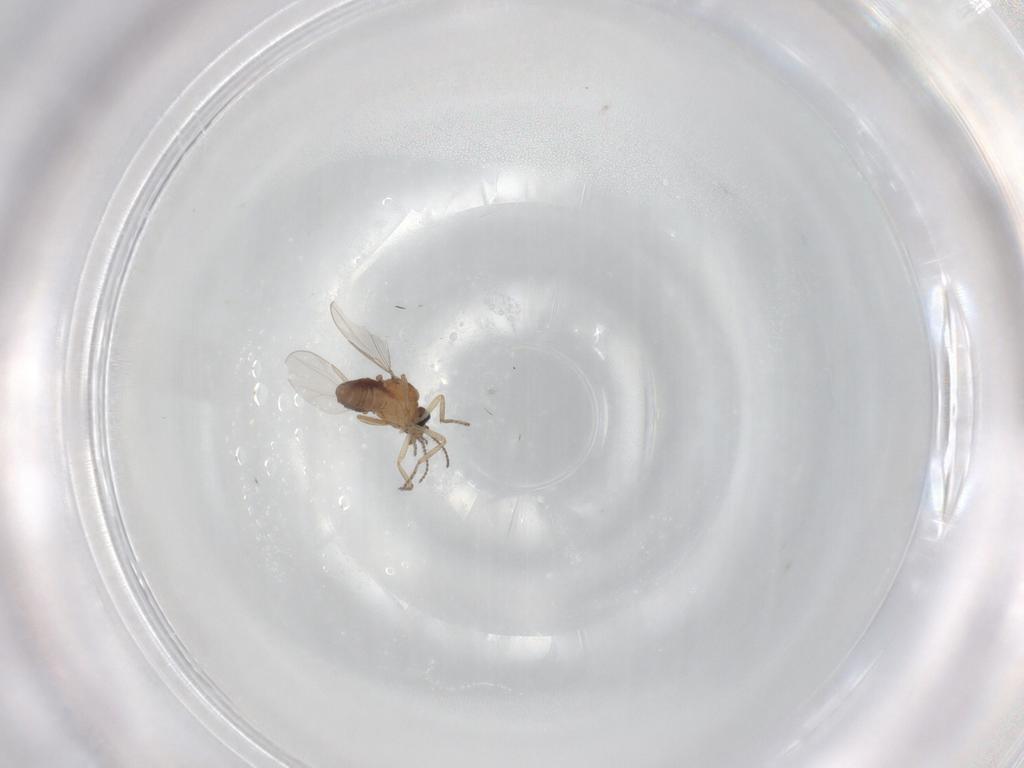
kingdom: Animalia
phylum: Arthropoda
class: Insecta
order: Diptera
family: Ceratopogonidae
